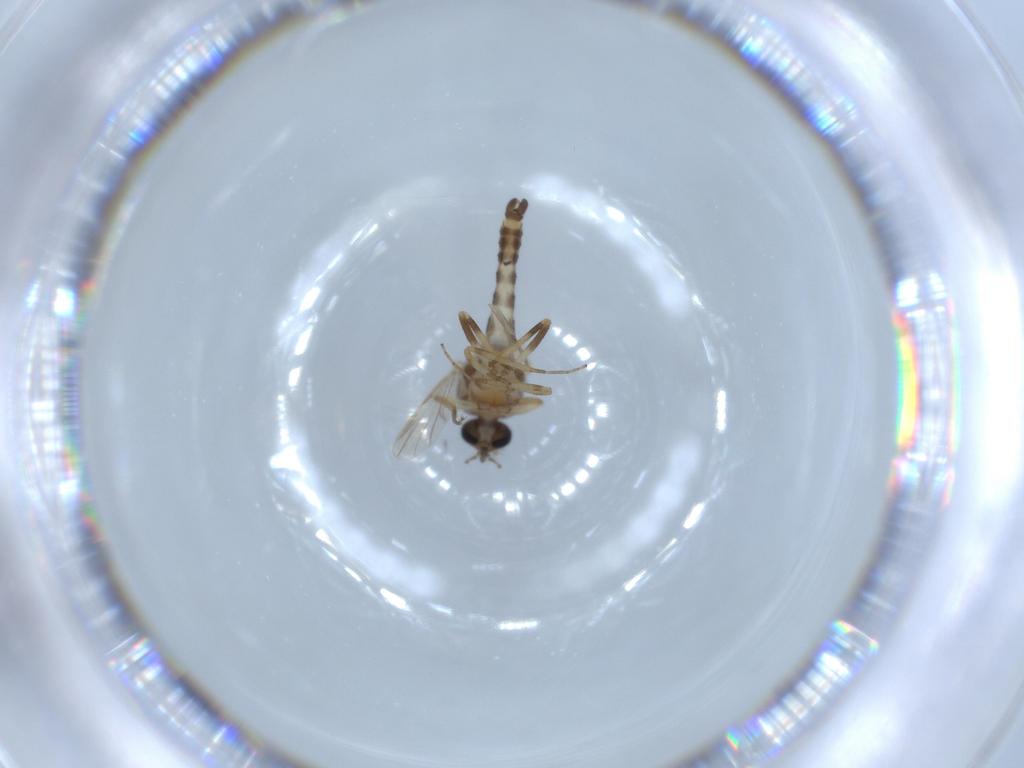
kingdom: Animalia
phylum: Arthropoda
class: Insecta
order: Diptera
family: Ceratopogonidae
